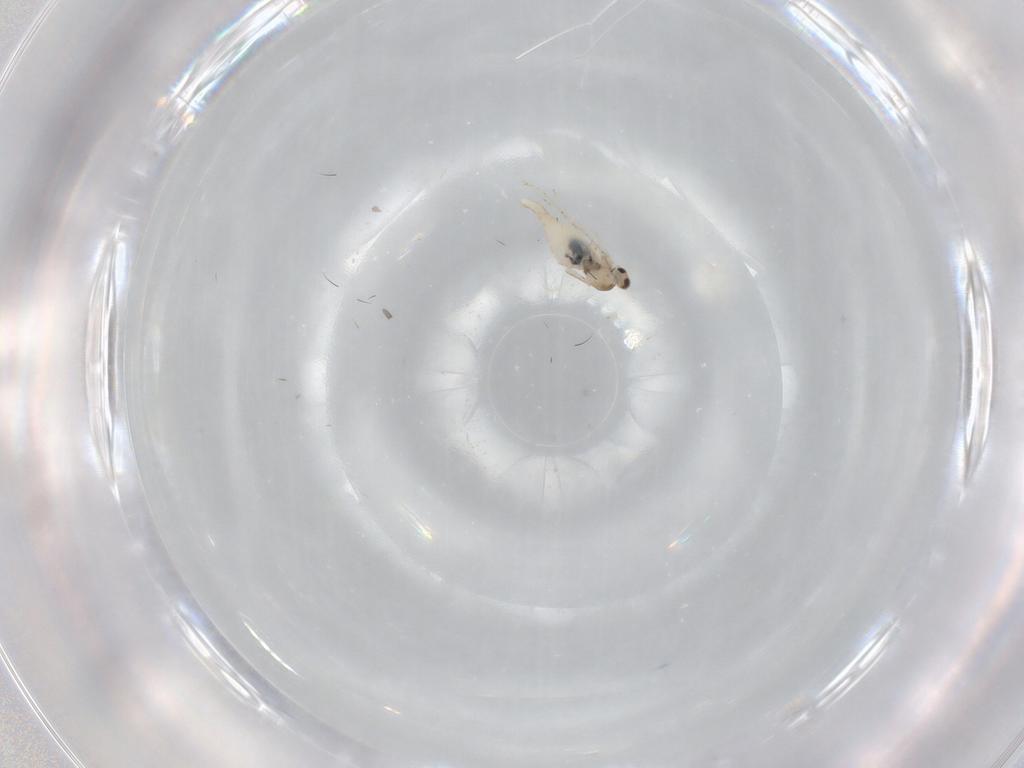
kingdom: Animalia
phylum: Arthropoda
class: Insecta
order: Diptera
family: Cecidomyiidae
